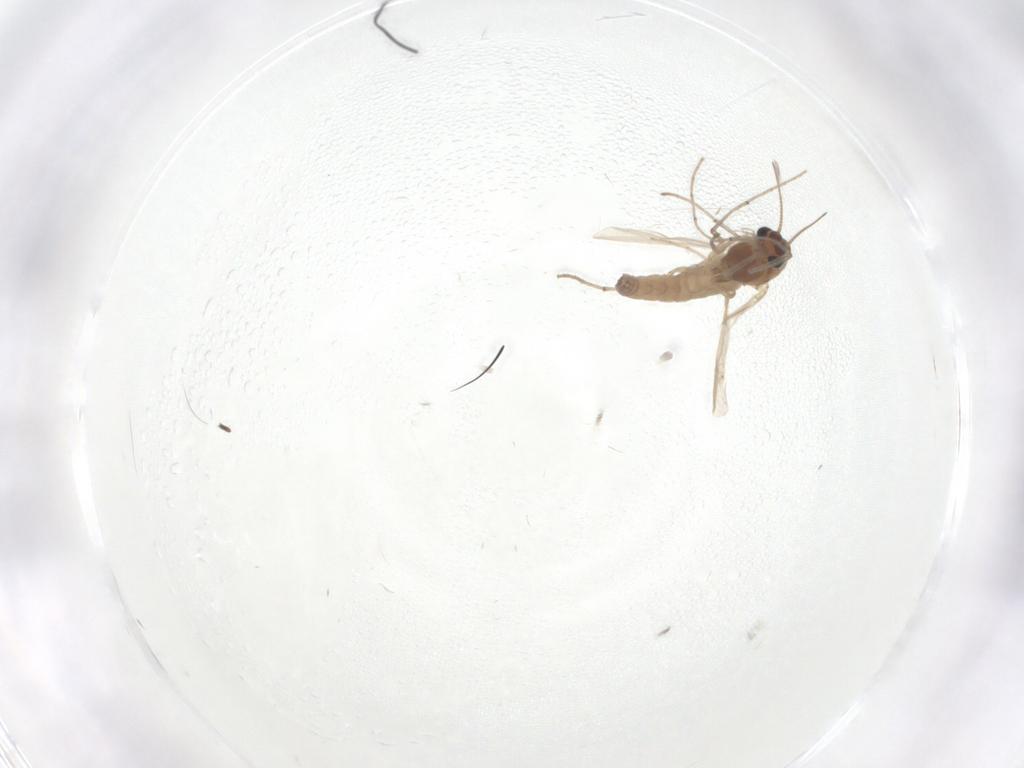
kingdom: Animalia
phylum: Arthropoda
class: Insecta
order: Diptera
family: Chironomidae
